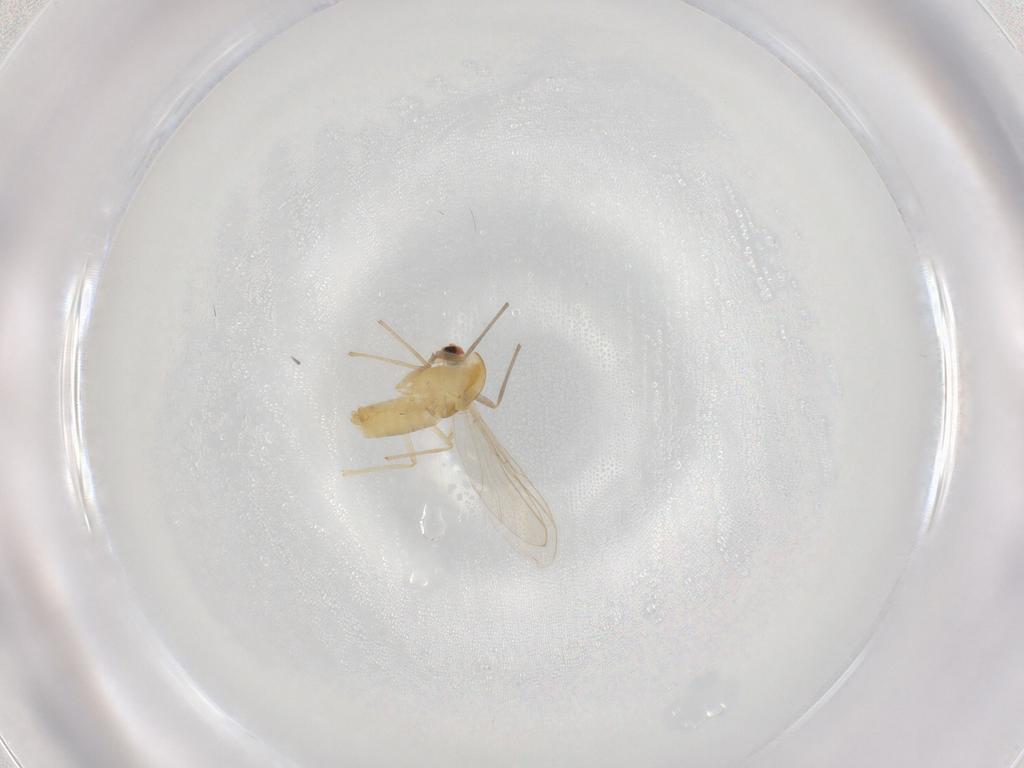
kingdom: Animalia
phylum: Arthropoda
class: Insecta
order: Diptera
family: Chironomidae
